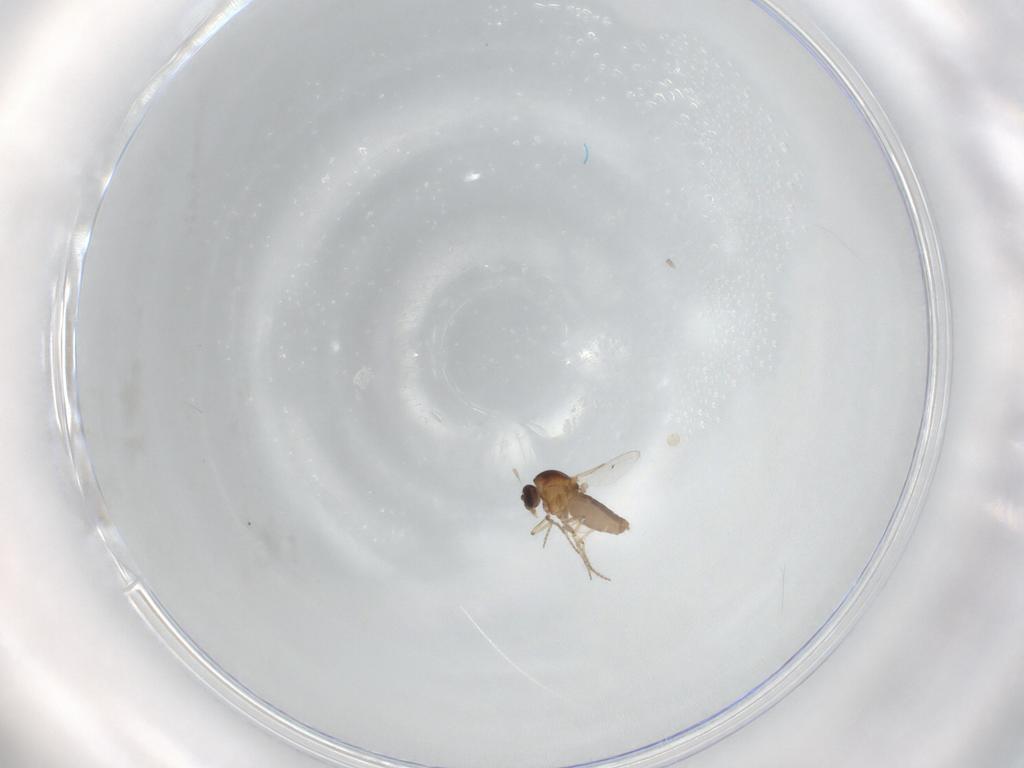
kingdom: Animalia
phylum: Arthropoda
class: Insecta
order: Diptera
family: Ceratopogonidae
